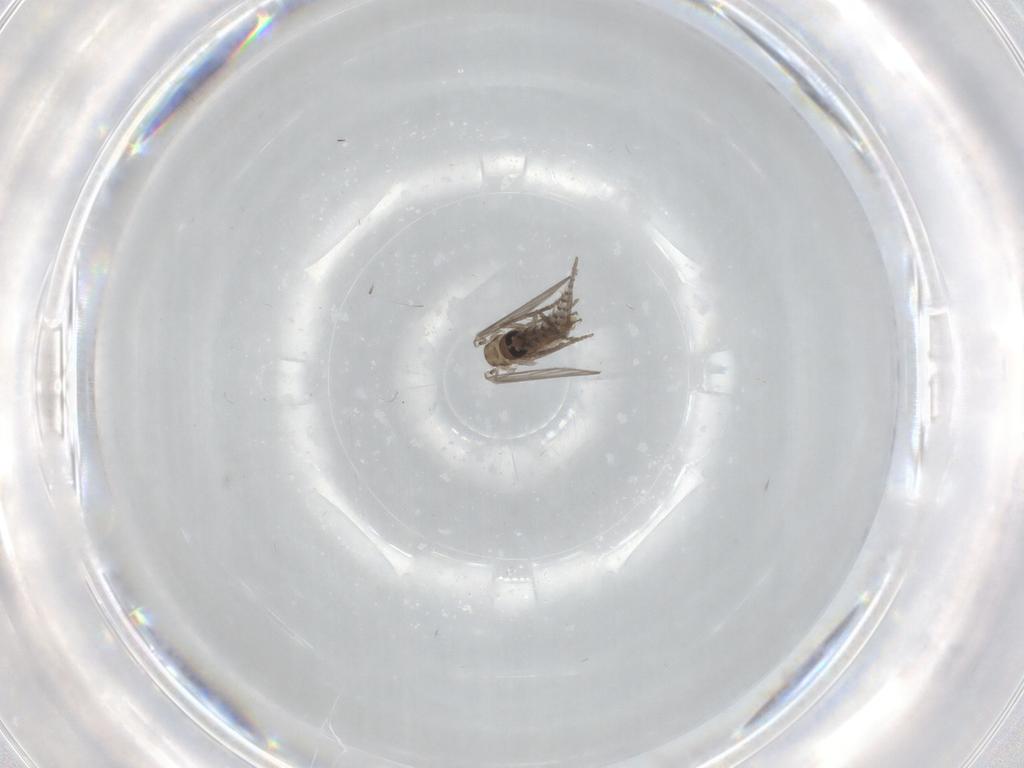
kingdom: Animalia
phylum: Arthropoda
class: Insecta
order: Diptera
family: Psychodidae
